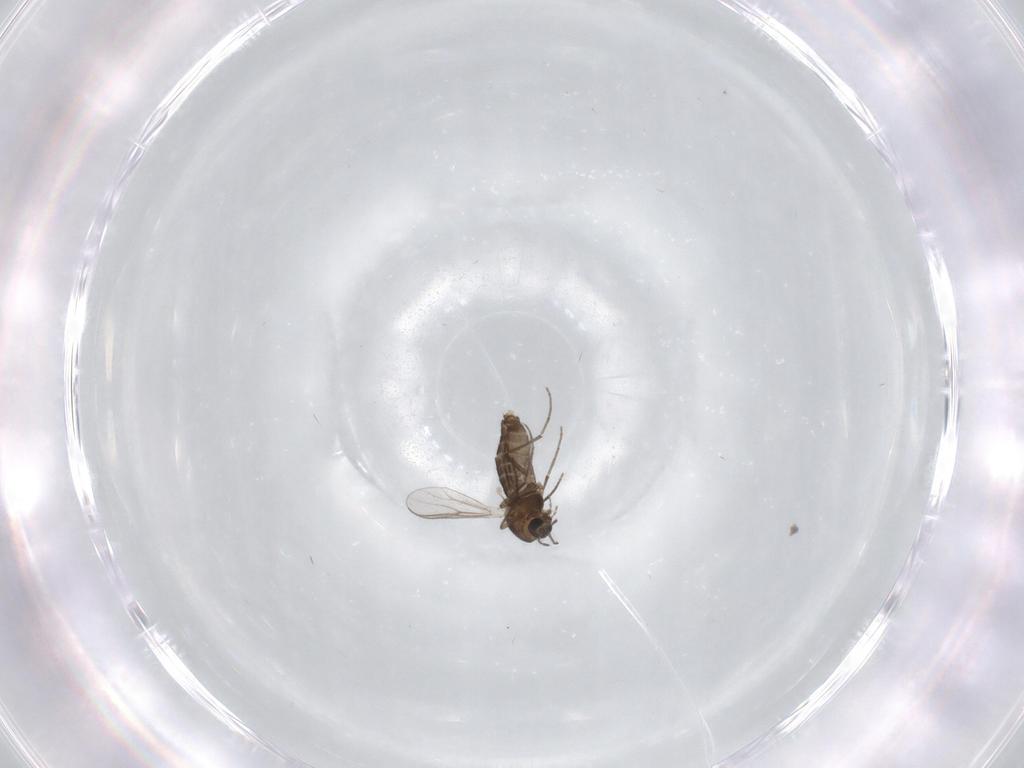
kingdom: Animalia
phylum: Arthropoda
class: Insecta
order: Diptera
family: Chironomidae
